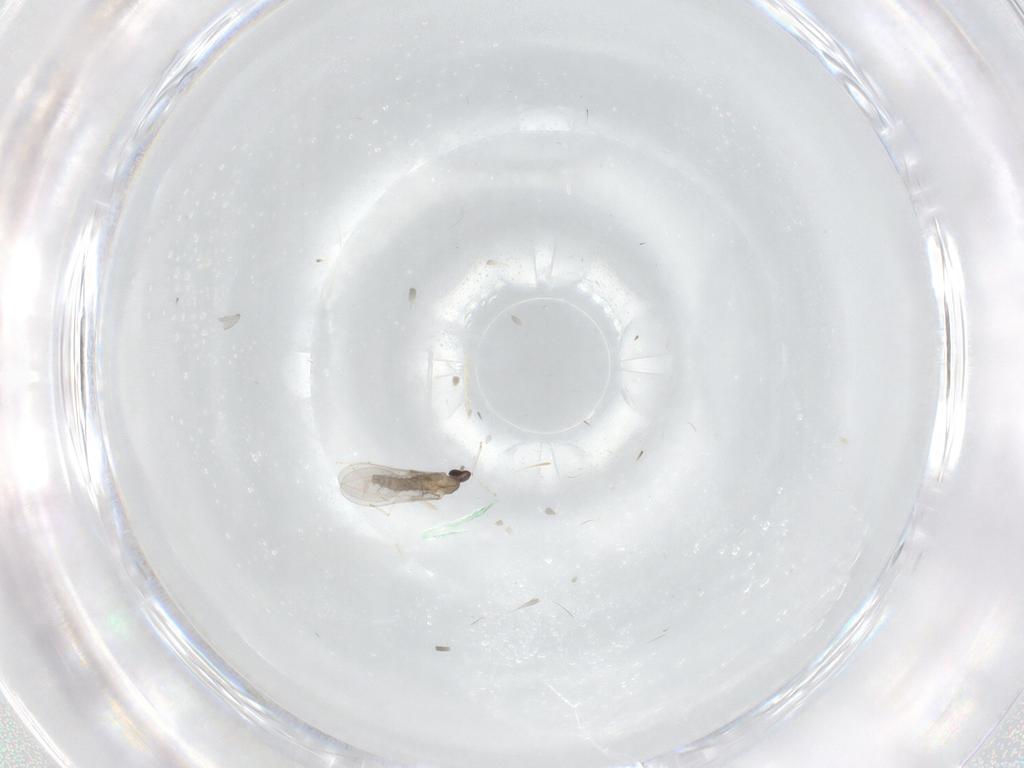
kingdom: Animalia
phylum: Arthropoda
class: Insecta
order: Diptera
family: Cecidomyiidae
